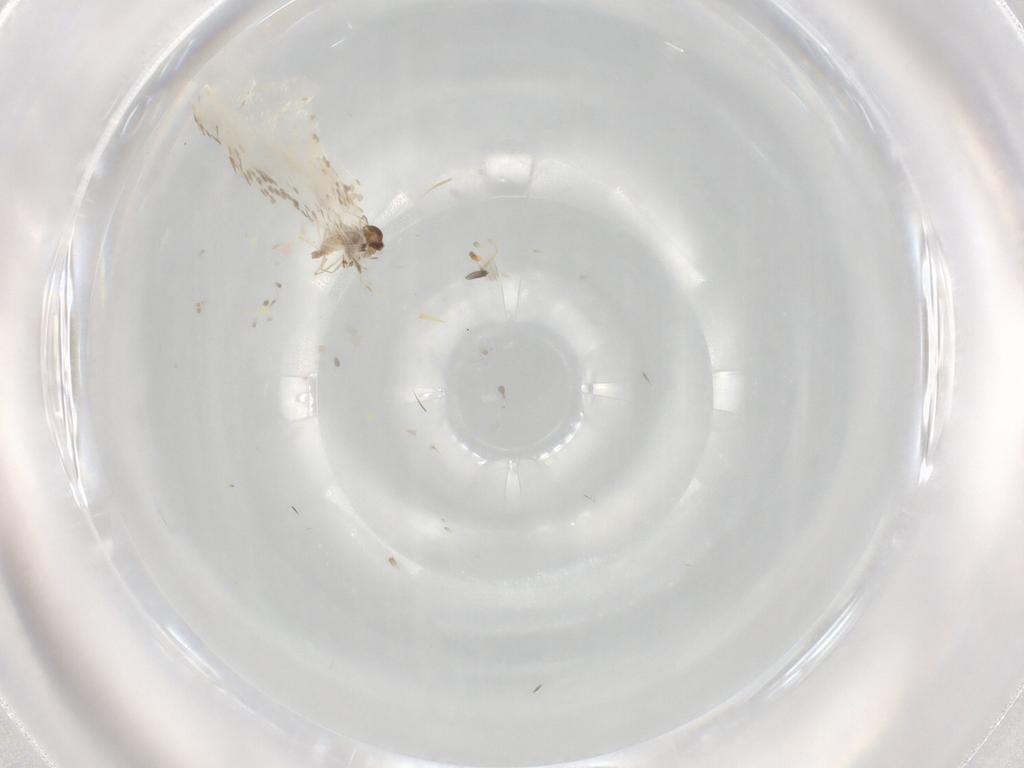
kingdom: Animalia
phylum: Arthropoda
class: Insecta
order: Diptera
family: Cecidomyiidae
